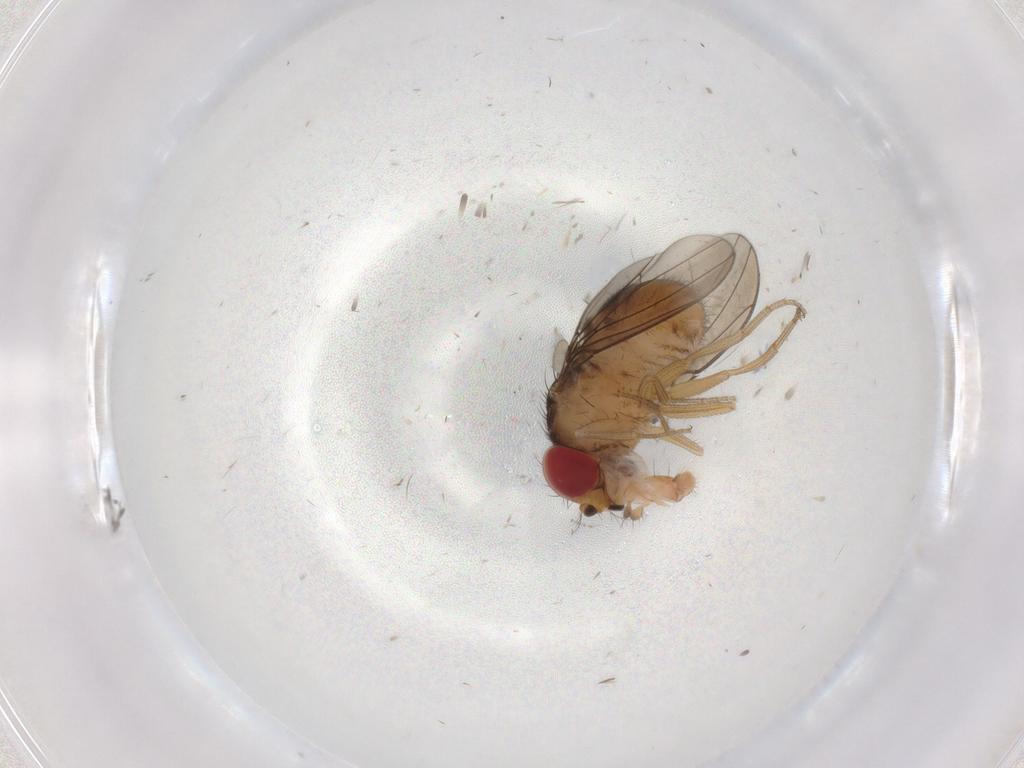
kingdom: Animalia
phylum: Arthropoda
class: Insecta
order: Diptera
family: Drosophilidae
